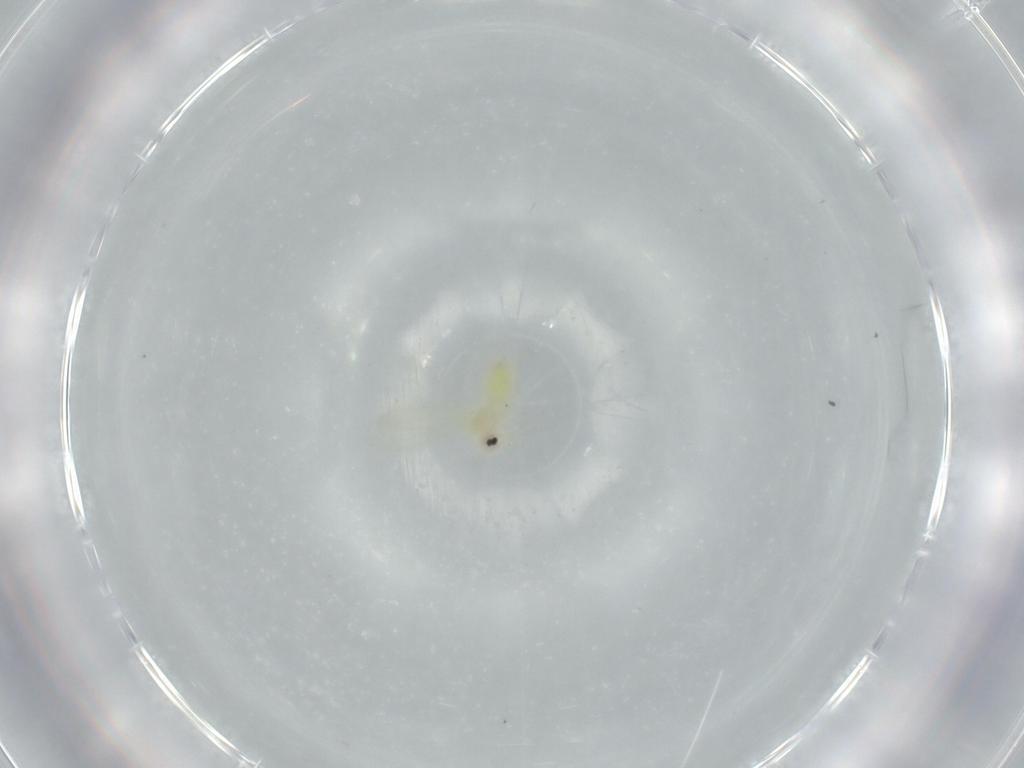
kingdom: Animalia
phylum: Arthropoda
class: Insecta
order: Hemiptera
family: Aleyrodidae
